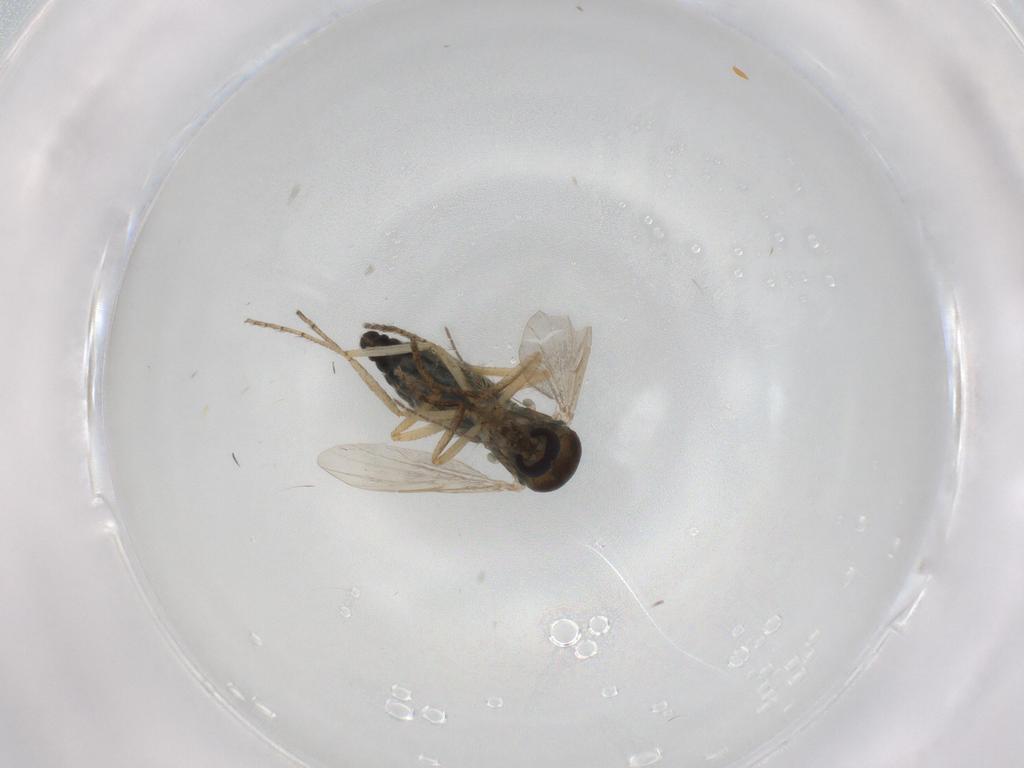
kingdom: Animalia
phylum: Arthropoda
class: Insecta
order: Diptera
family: Ceratopogonidae
